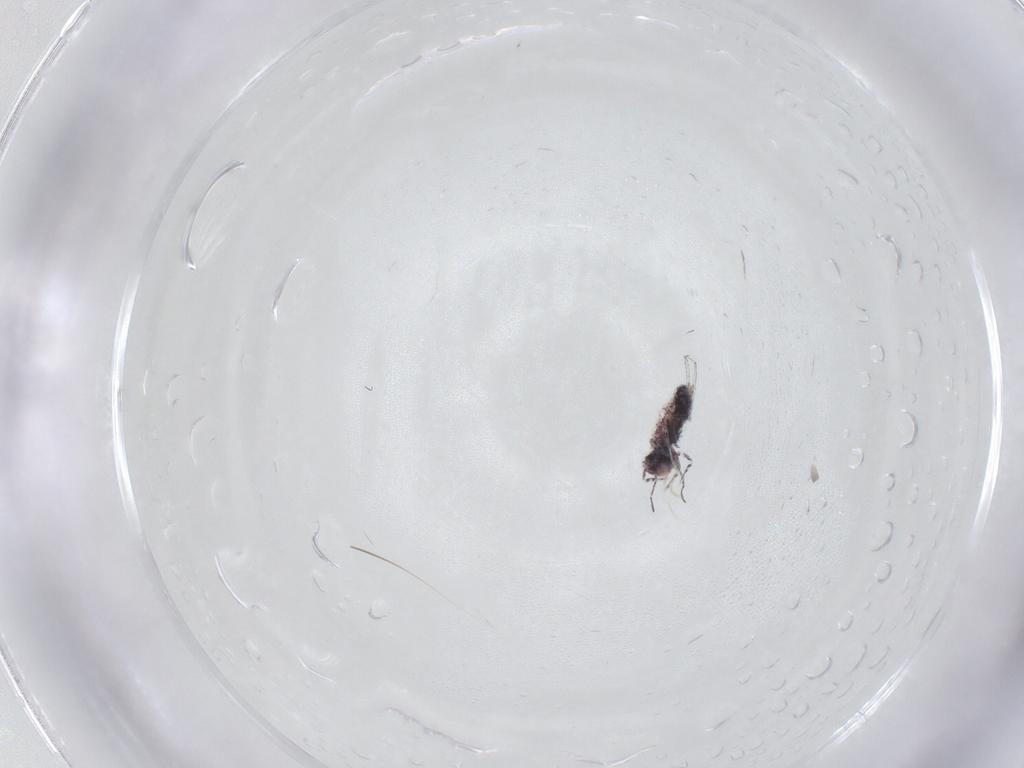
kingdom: Animalia
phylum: Arthropoda
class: Collembola
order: Symphypleona
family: Bourletiellidae
